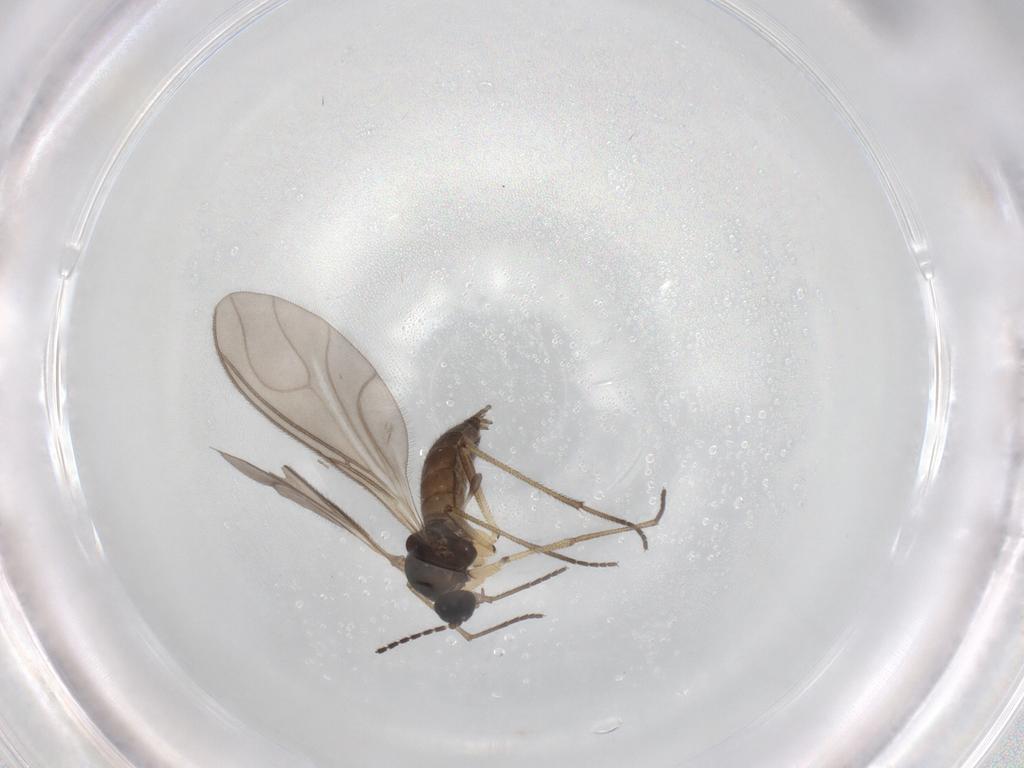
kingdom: Animalia
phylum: Arthropoda
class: Insecta
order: Diptera
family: Sciaridae
